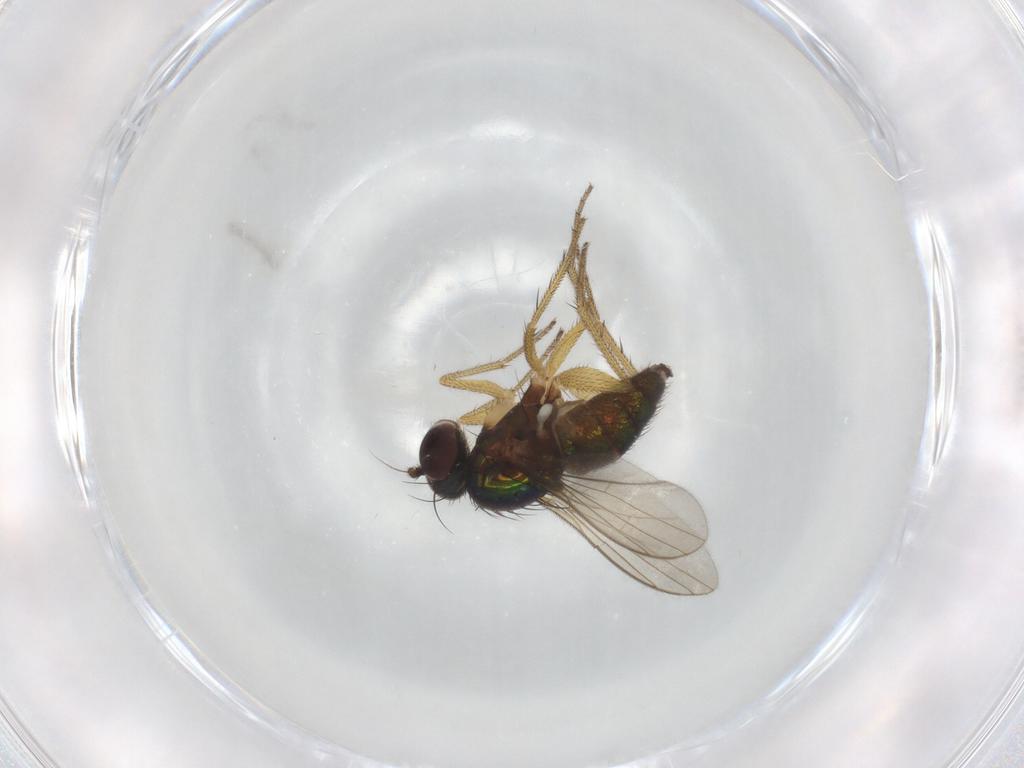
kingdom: Animalia
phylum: Arthropoda
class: Insecta
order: Diptera
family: Dolichopodidae
